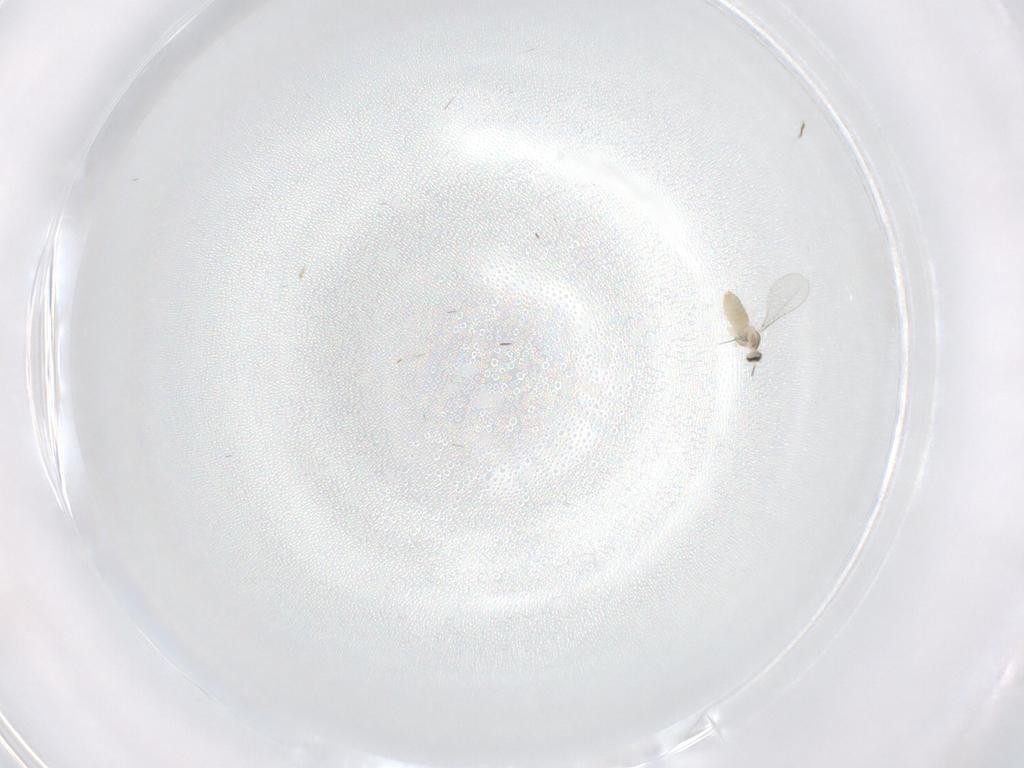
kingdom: Animalia
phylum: Arthropoda
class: Insecta
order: Diptera
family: Cecidomyiidae
